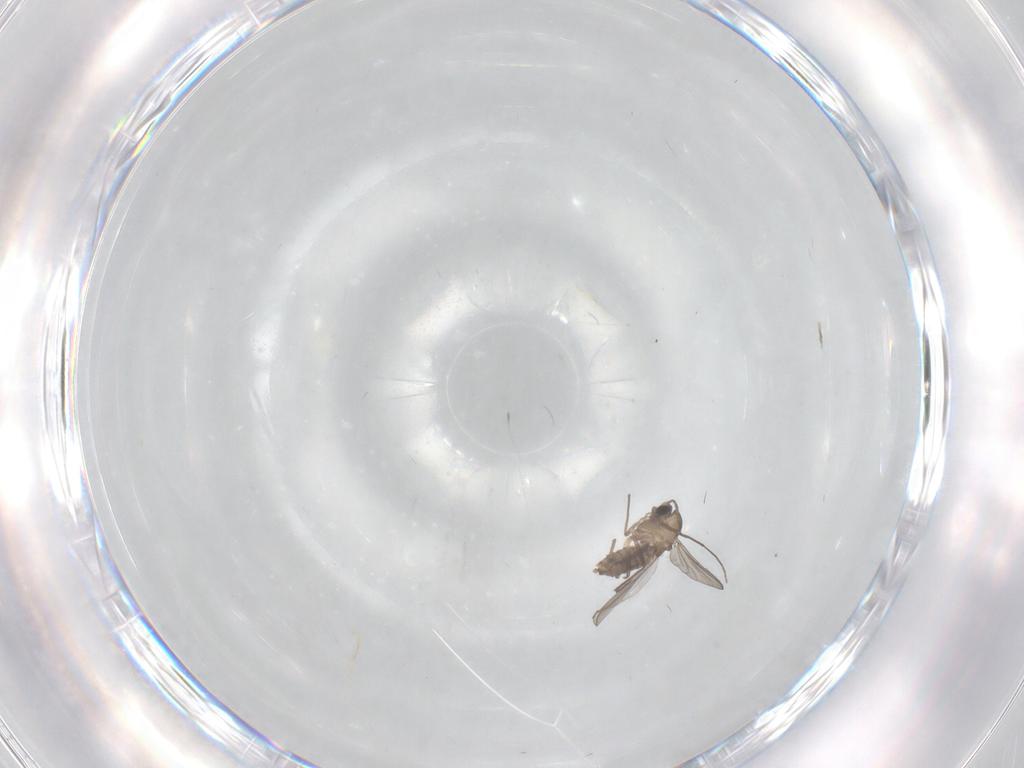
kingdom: Animalia
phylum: Arthropoda
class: Insecta
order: Diptera
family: Chironomidae
